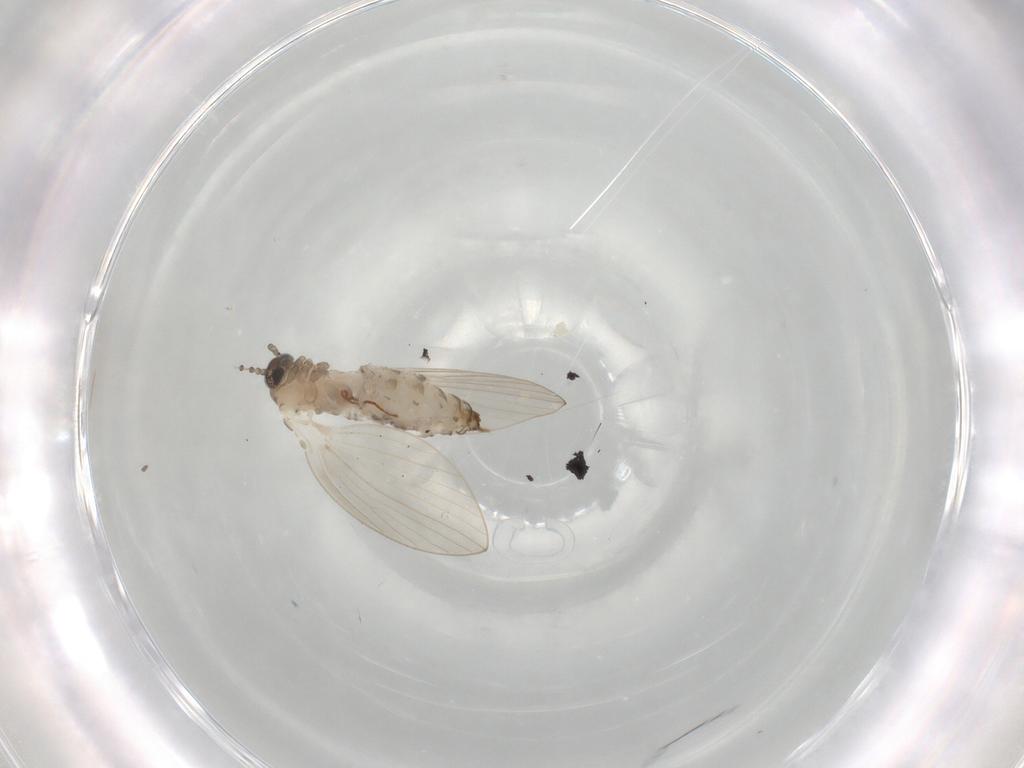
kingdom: Animalia
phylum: Arthropoda
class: Insecta
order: Diptera
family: Psychodidae
